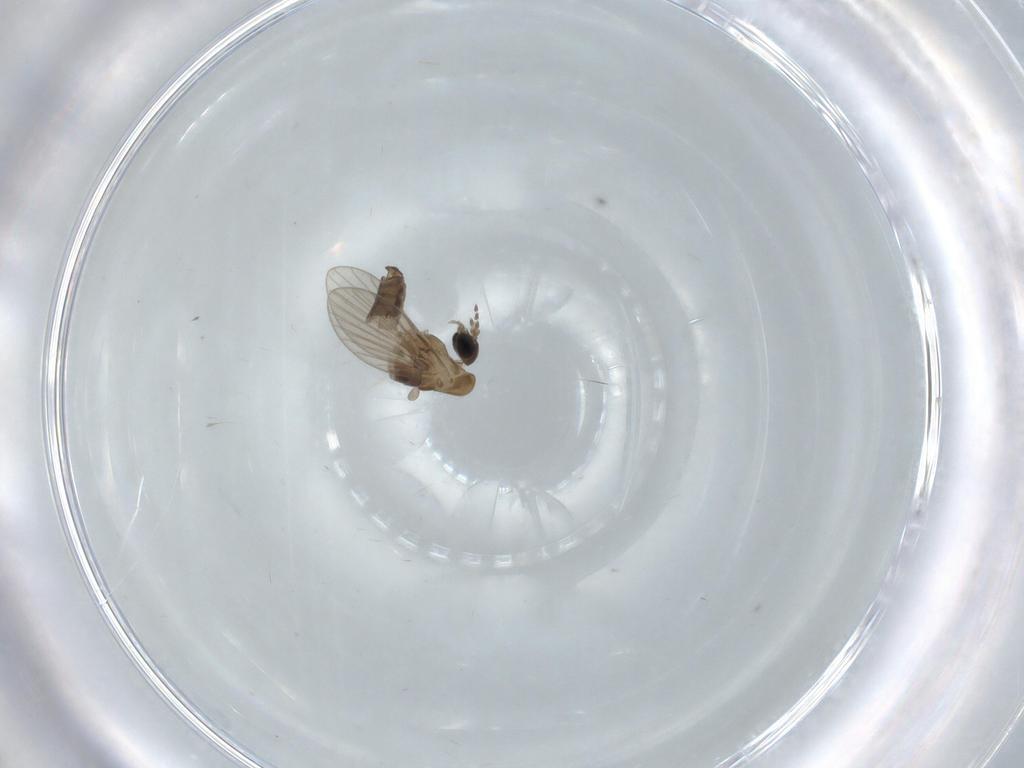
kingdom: Animalia
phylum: Arthropoda
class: Insecta
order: Diptera
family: Psychodidae
